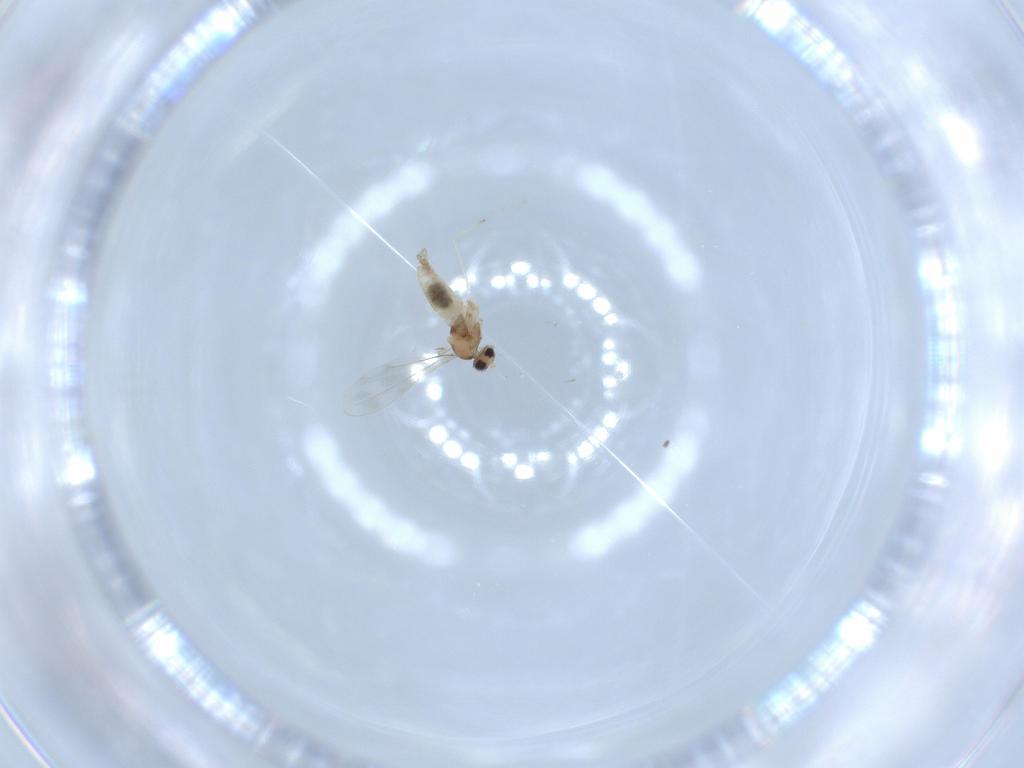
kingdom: Animalia
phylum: Arthropoda
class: Insecta
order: Diptera
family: Sciaridae
